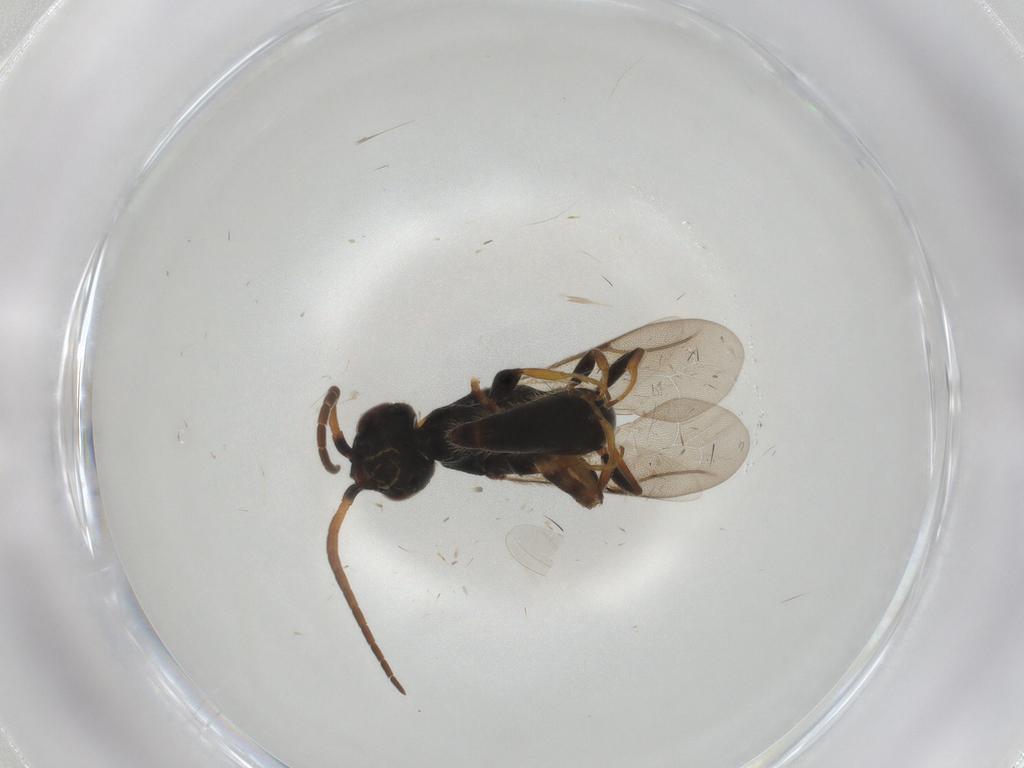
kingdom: Animalia
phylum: Arthropoda
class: Insecta
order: Hymenoptera
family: Bethylidae
